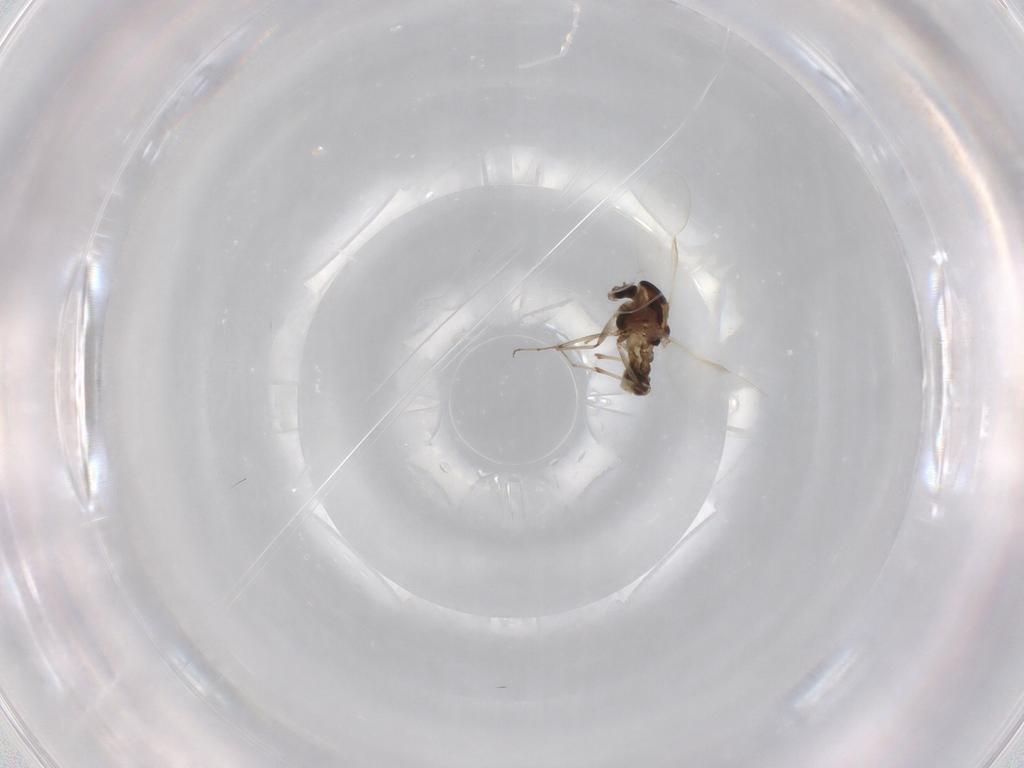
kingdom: Animalia
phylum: Arthropoda
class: Insecta
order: Diptera
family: Chironomidae
